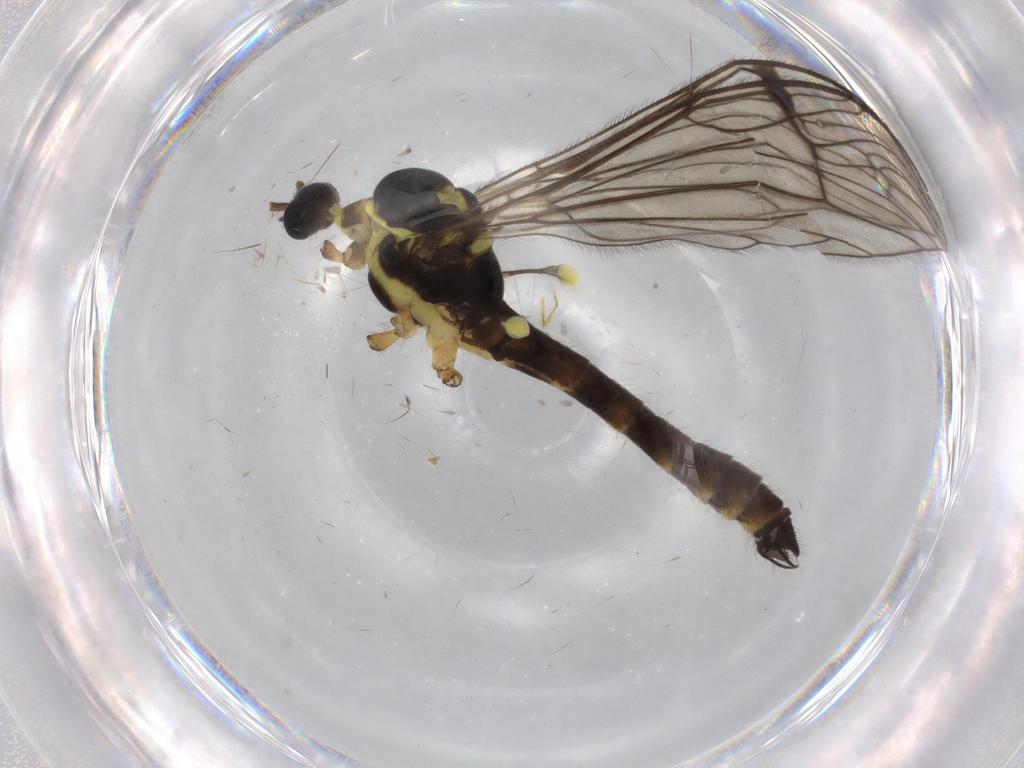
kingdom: Animalia
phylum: Arthropoda
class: Insecta
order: Diptera
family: Limoniidae
